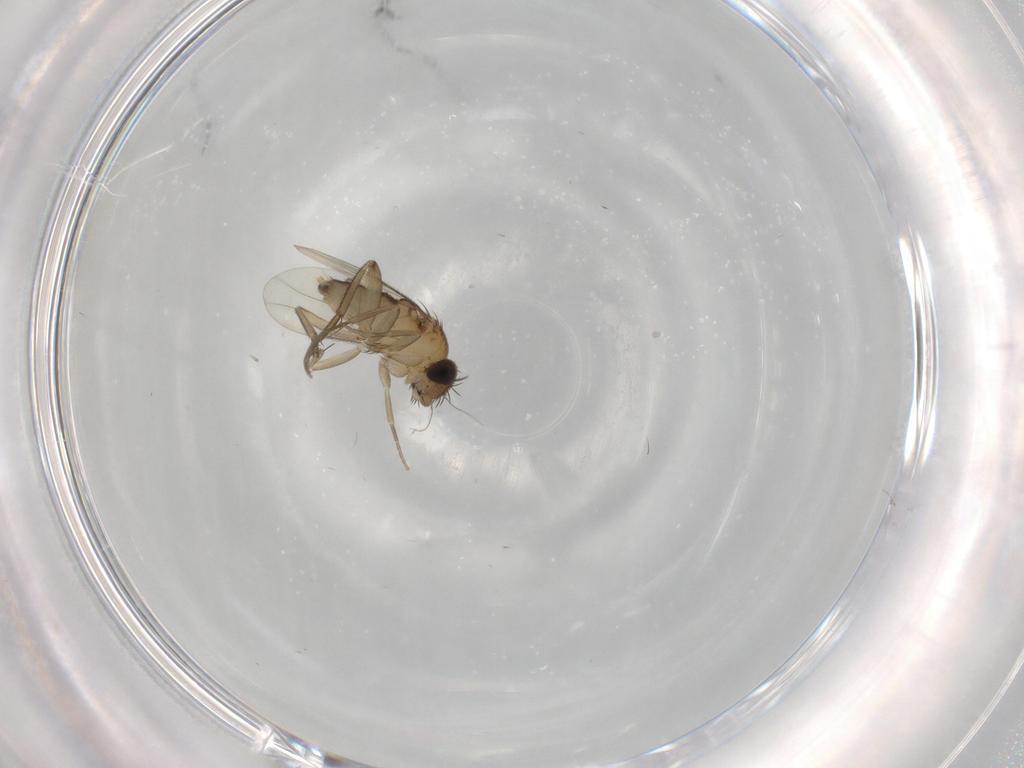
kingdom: Animalia
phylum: Arthropoda
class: Insecta
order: Diptera
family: Phoridae
